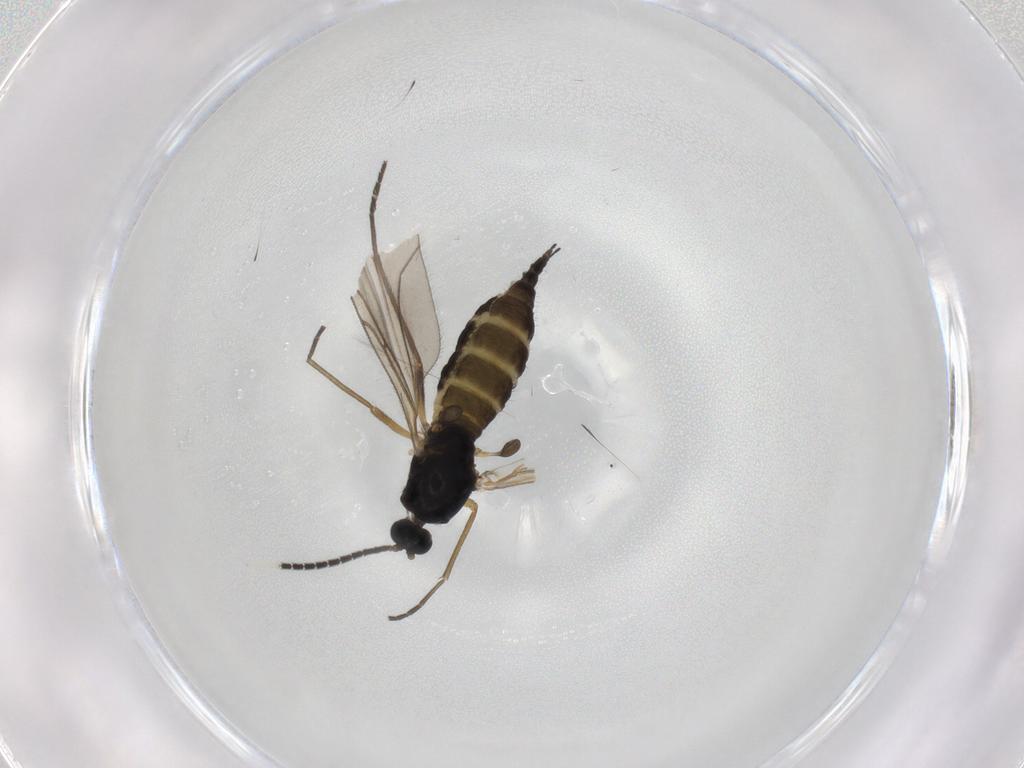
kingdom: Animalia
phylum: Arthropoda
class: Insecta
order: Diptera
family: Sciaridae
